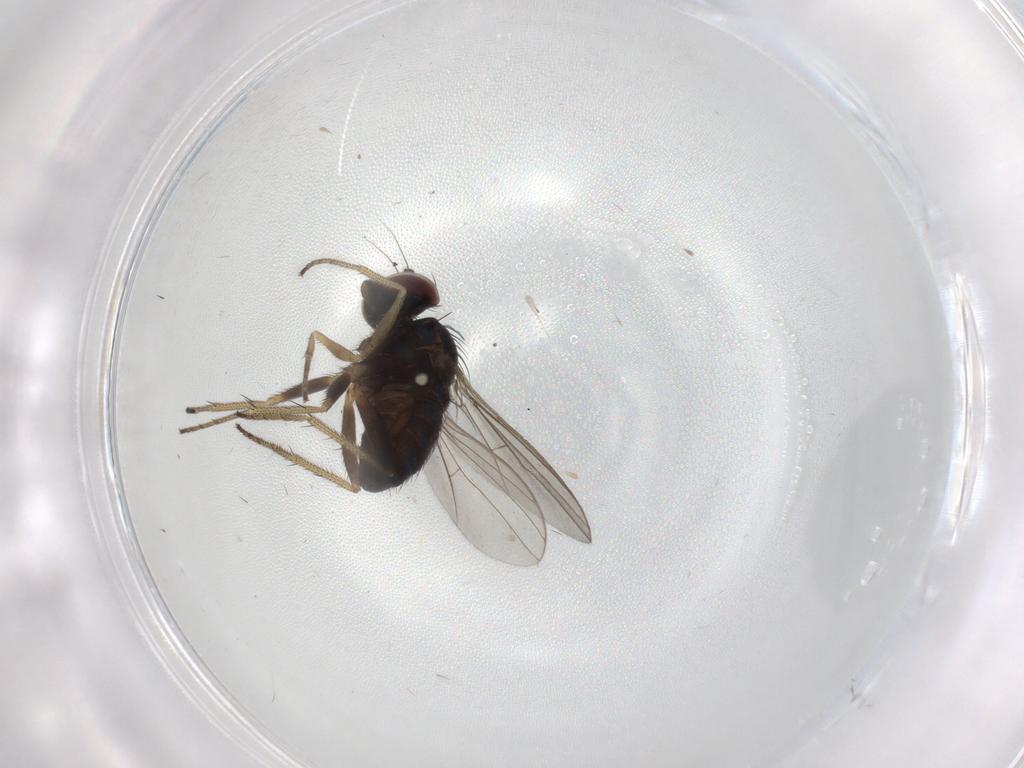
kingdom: Animalia
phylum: Arthropoda
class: Insecta
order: Diptera
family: Dolichopodidae
